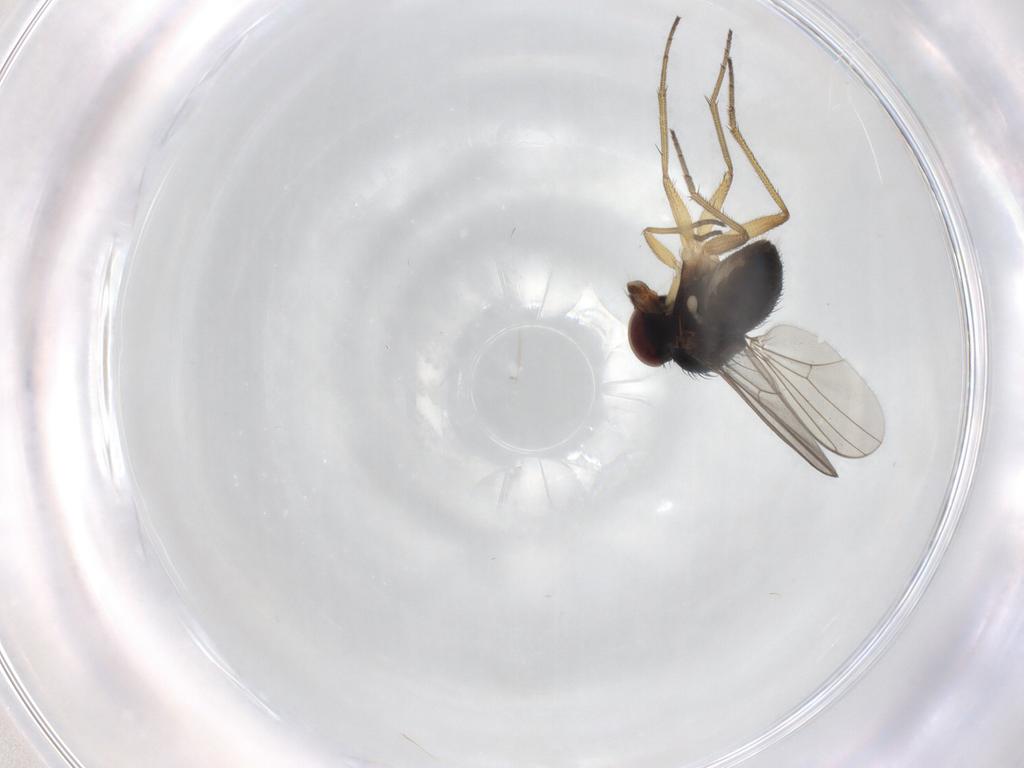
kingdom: Animalia
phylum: Arthropoda
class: Insecta
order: Diptera
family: Dolichopodidae
